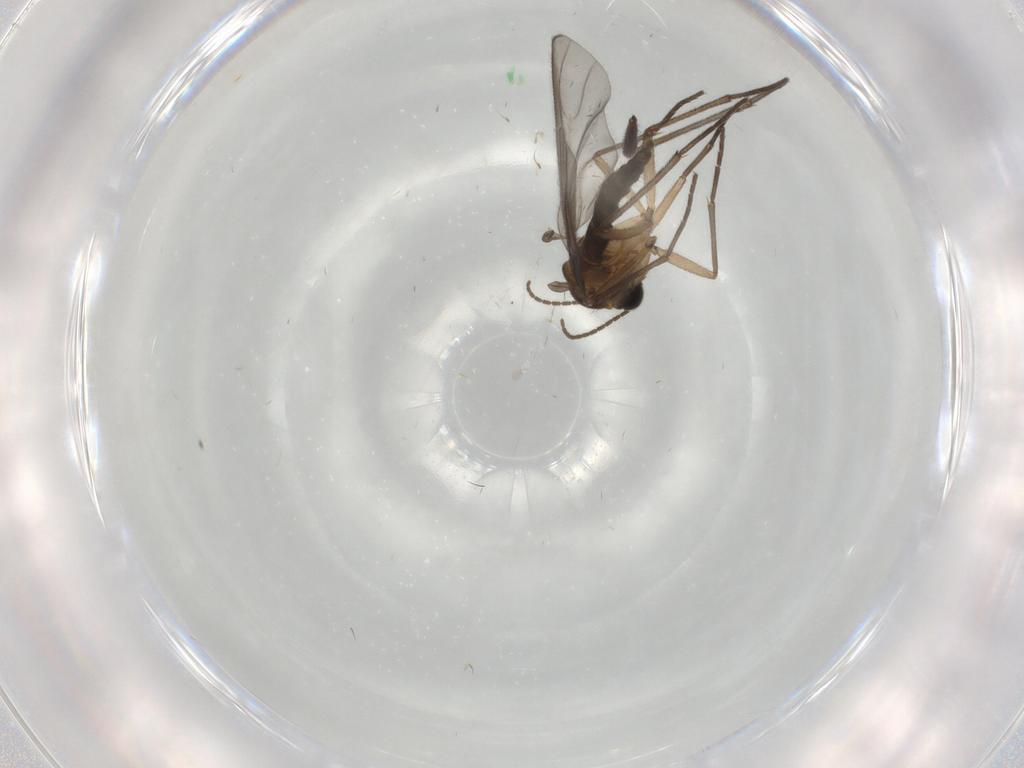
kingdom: Animalia
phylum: Arthropoda
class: Insecta
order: Diptera
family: Sciaridae
